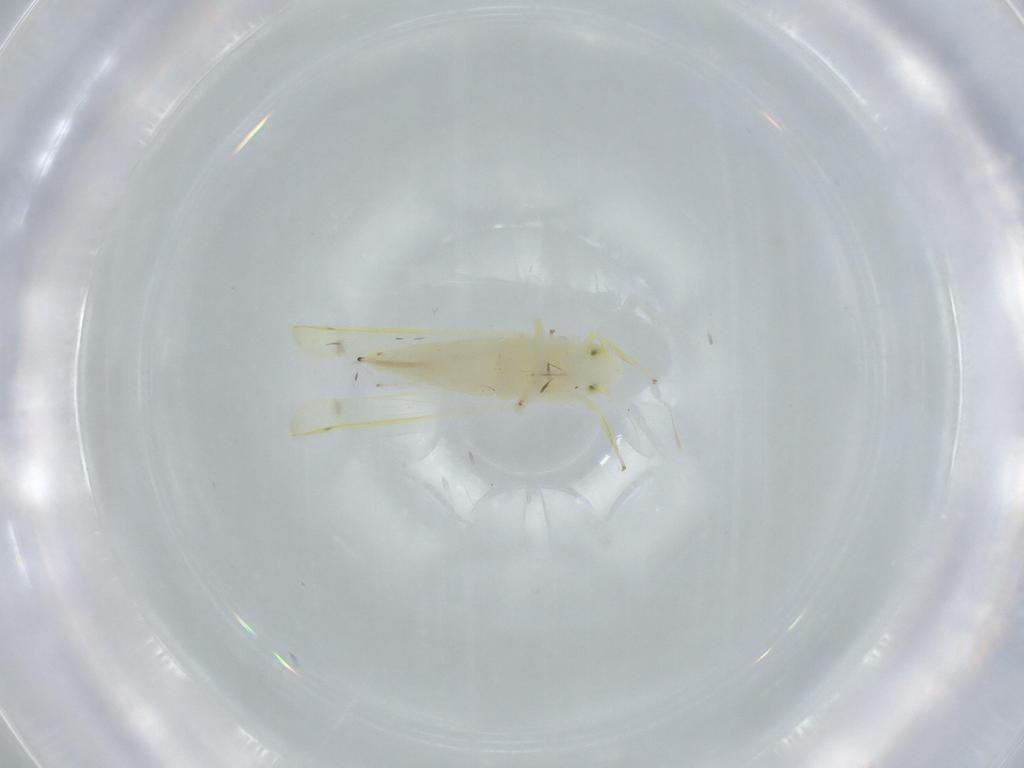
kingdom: Animalia
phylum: Arthropoda
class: Insecta
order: Hemiptera
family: Cicadellidae
